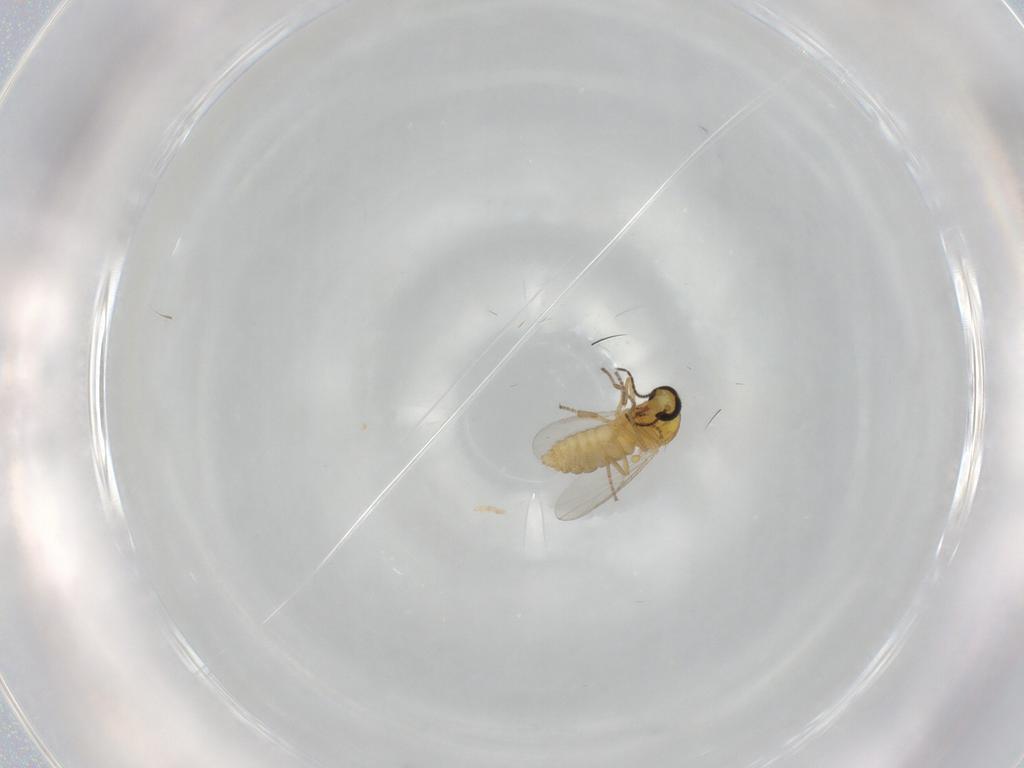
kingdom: Animalia
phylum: Arthropoda
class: Insecta
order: Diptera
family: Ceratopogonidae
